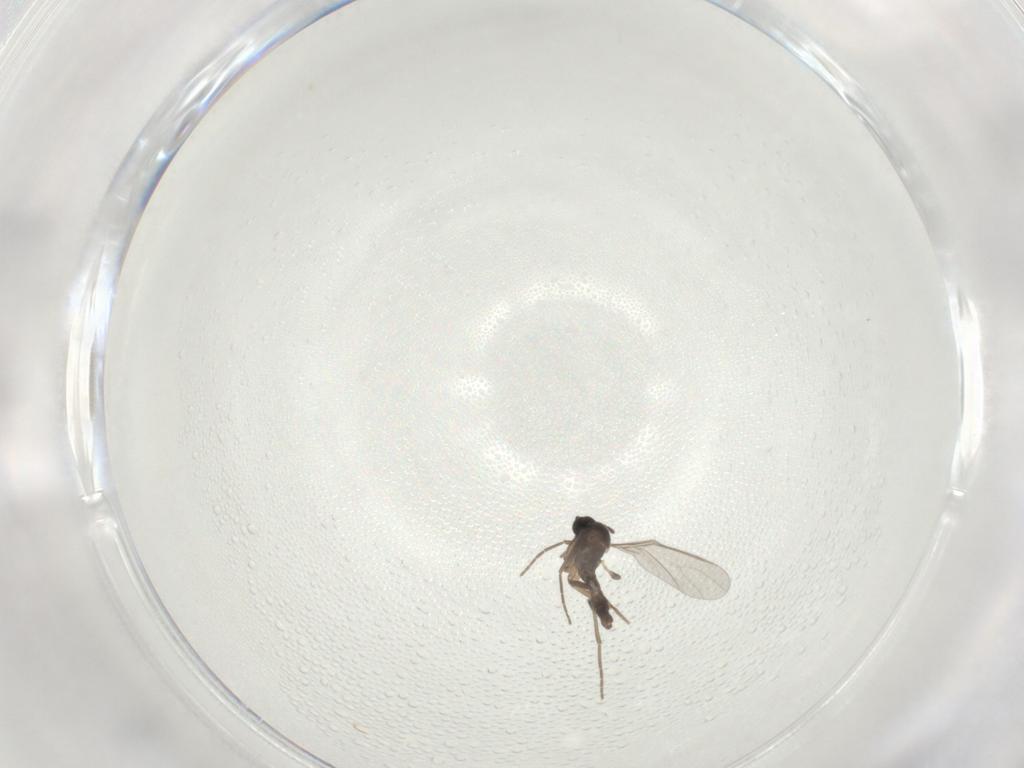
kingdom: Animalia
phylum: Arthropoda
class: Insecta
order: Diptera
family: Sciaridae
